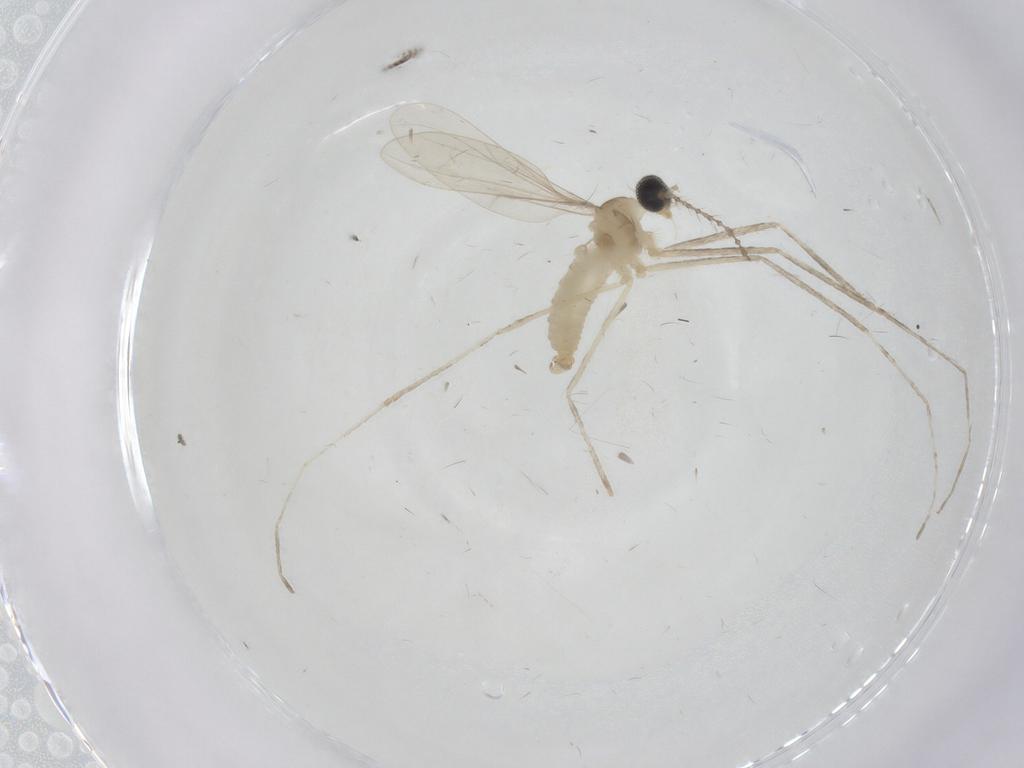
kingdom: Animalia
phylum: Arthropoda
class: Insecta
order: Diptera
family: Cecidomyiidae
